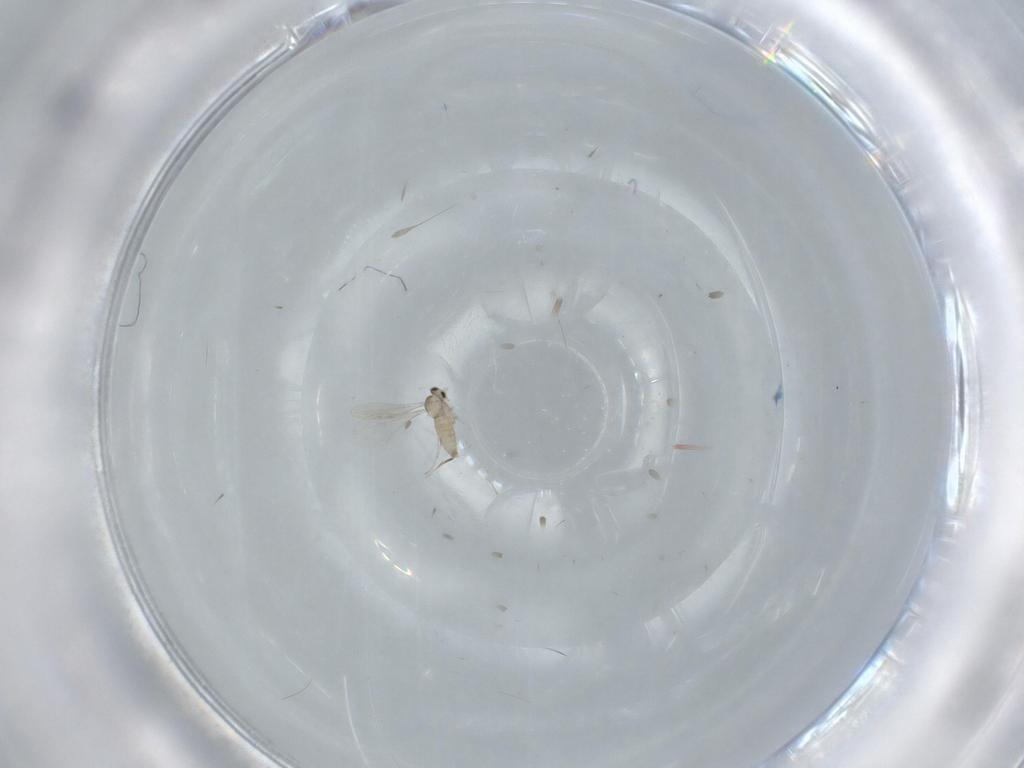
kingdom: Animalia
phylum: Arthropoda
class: Insecta
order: Diptera
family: Cecidomyiidae
